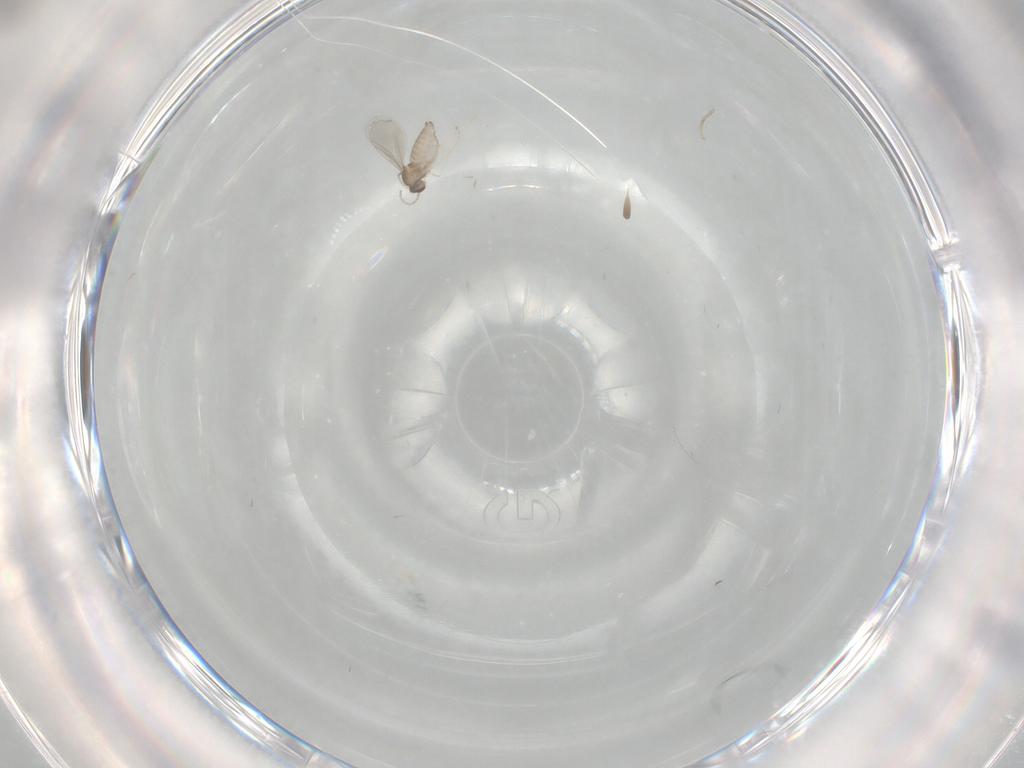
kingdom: Animalia
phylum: Arthropoda
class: Insecta
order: Diptera
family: Cecidomyiidae
